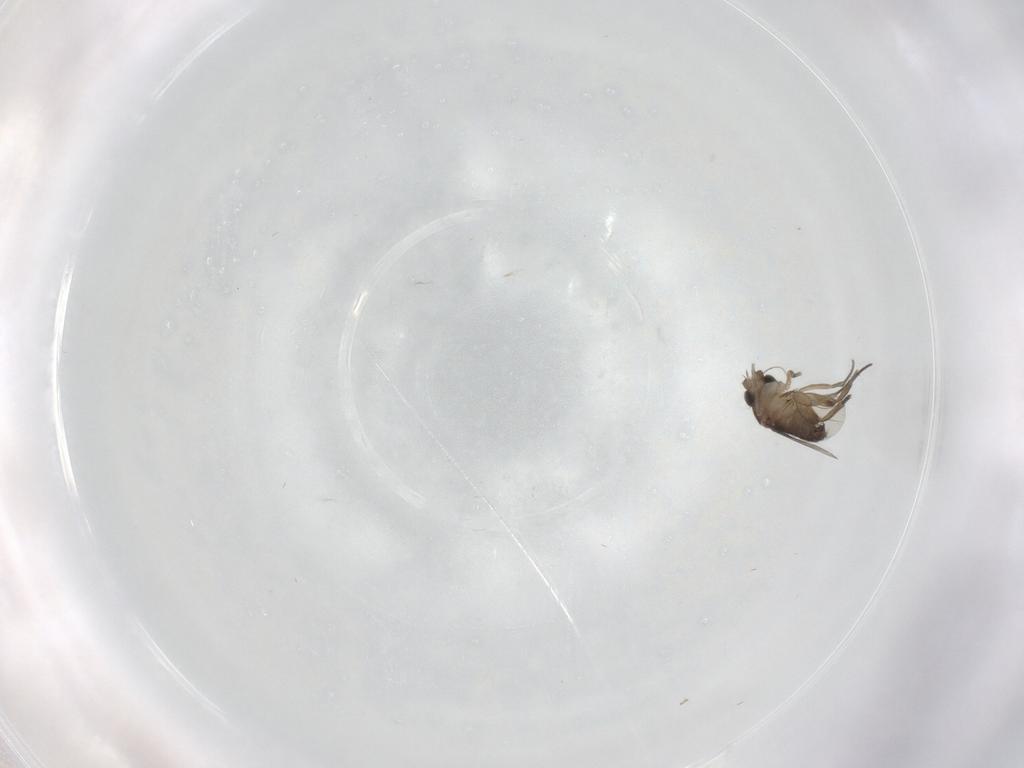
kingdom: Animalia
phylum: Arthropoda
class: Insecta
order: Diptera
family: Phoridae
